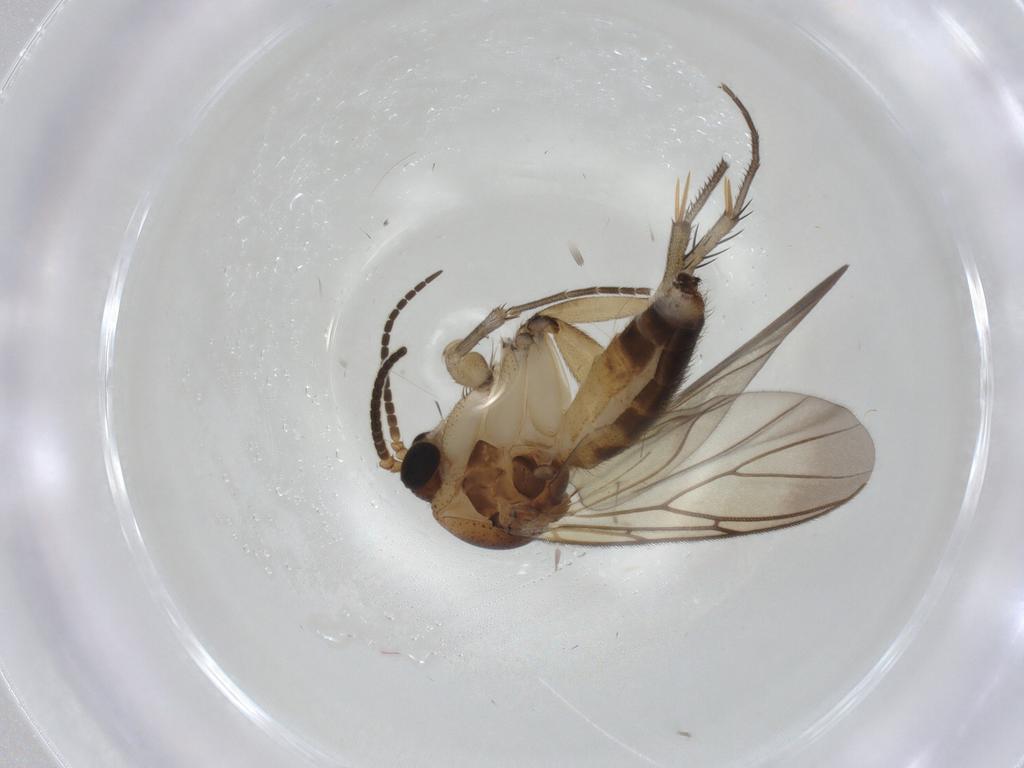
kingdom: Animalia
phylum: Arthropoda
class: Insecta
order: Diptera
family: Mycetophilidae
